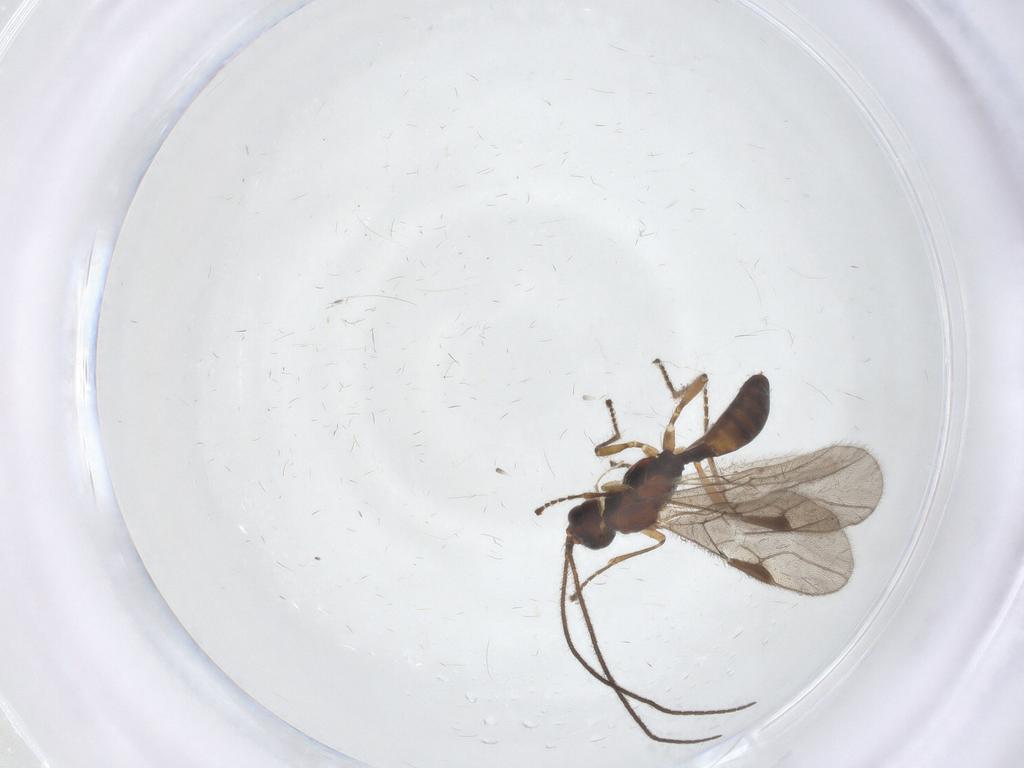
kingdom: Animalia
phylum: Arthropoda
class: Insecta
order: Hymenoptera
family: Braconidae
